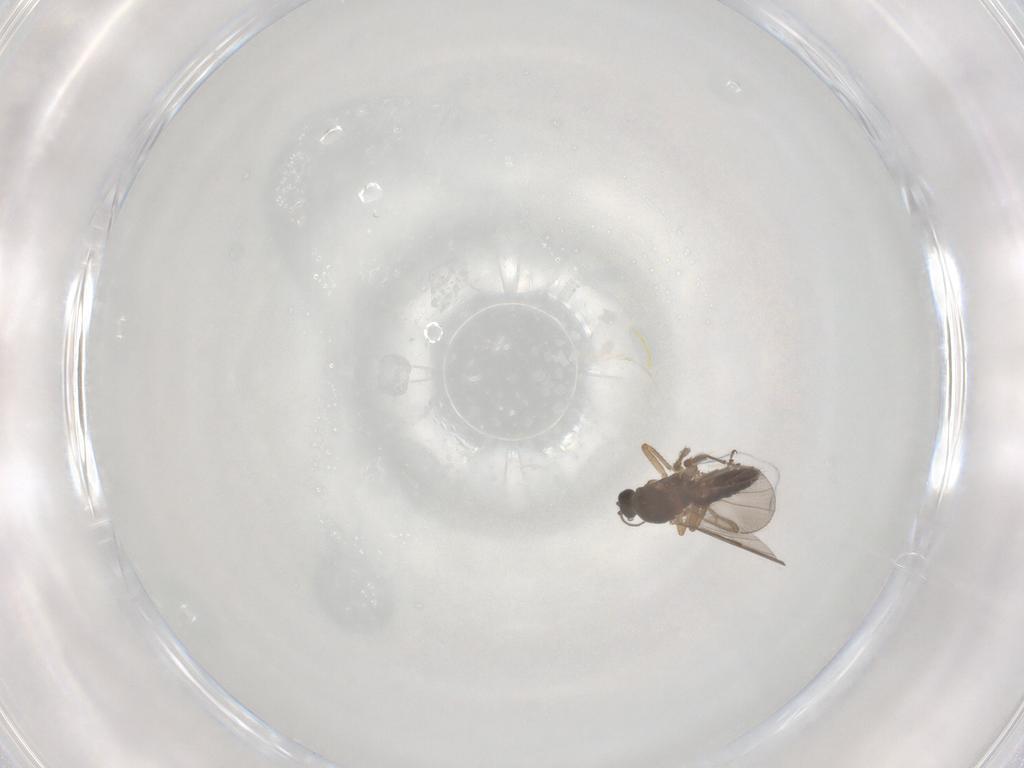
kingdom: Animalia
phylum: Arthropoda
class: Insecta
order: Diptera
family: Ceratopogonidae
